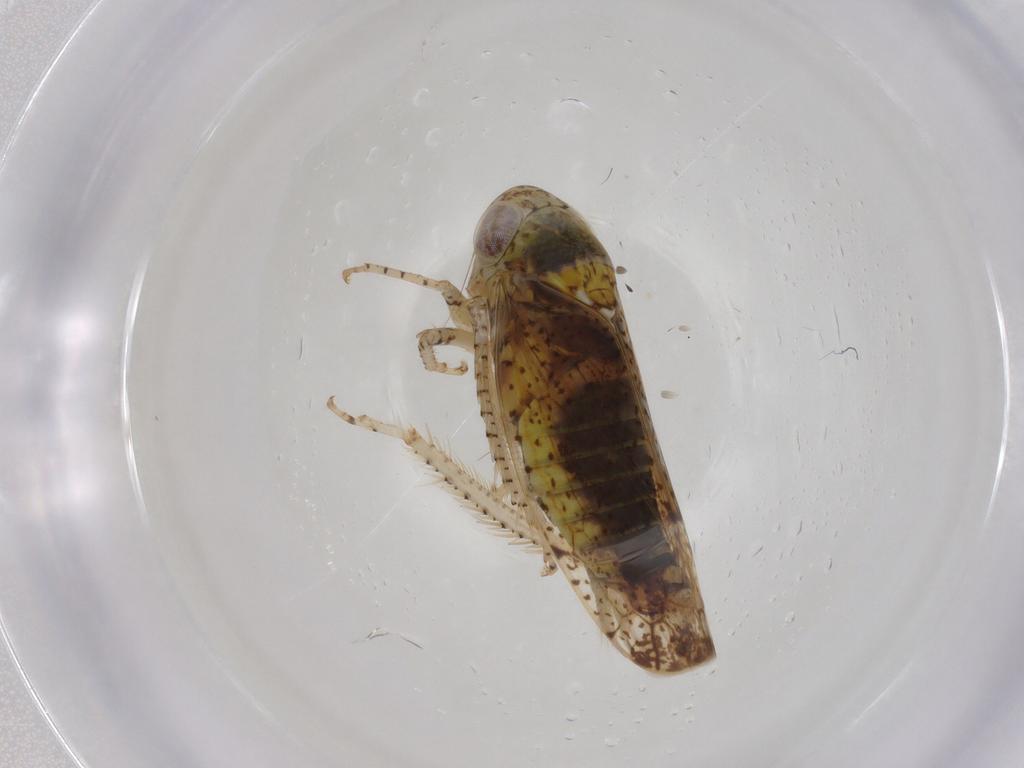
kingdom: Animalia
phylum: Arthropoda
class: Insecta
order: Hemiptera
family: Cicadellidae
